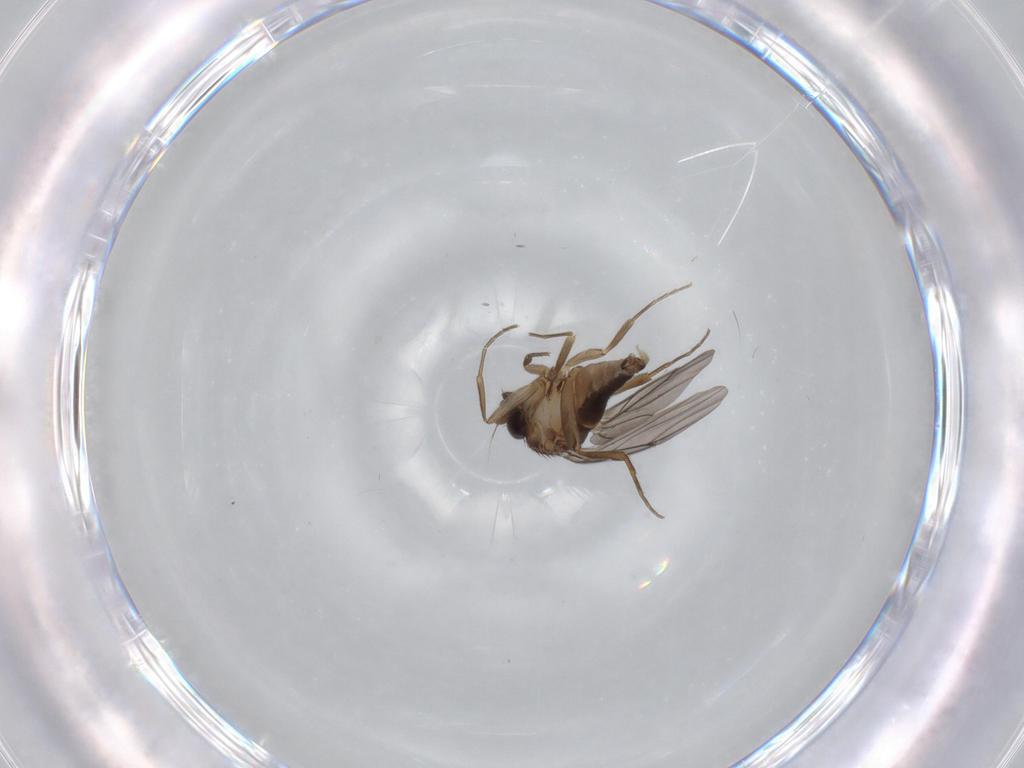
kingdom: Animalia
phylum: Arthropoda
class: Insecta
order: Diptera
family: Phoridae
